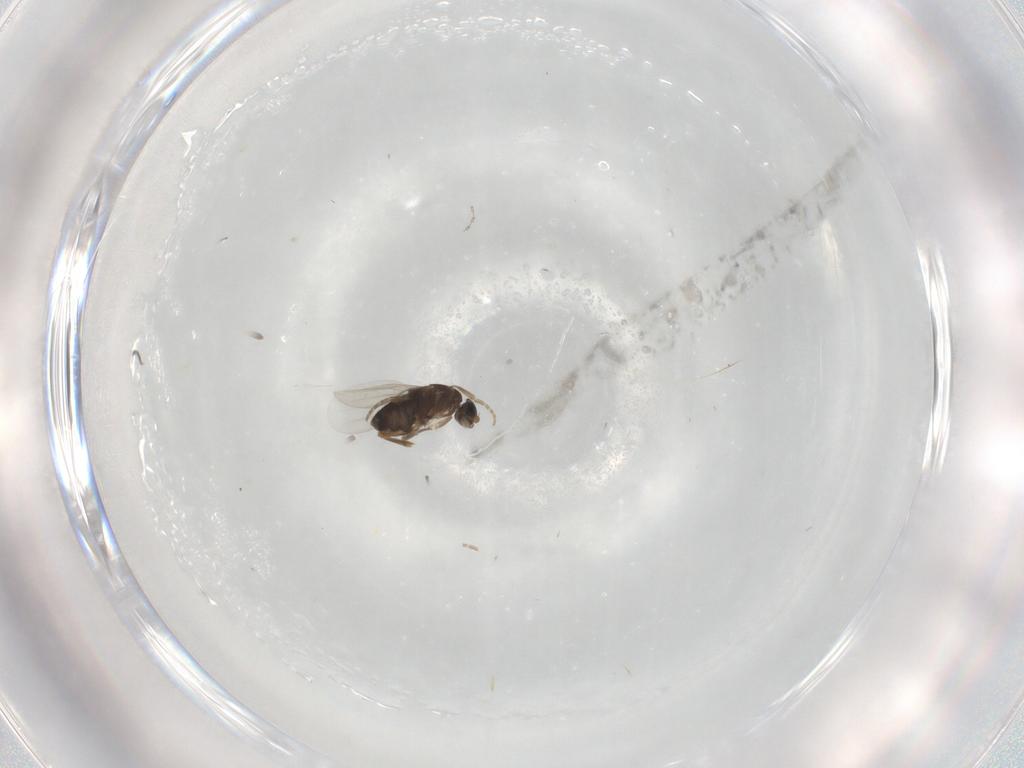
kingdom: Animalia
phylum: Arthropoda
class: Insecta
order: Diptera
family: Phoridae
